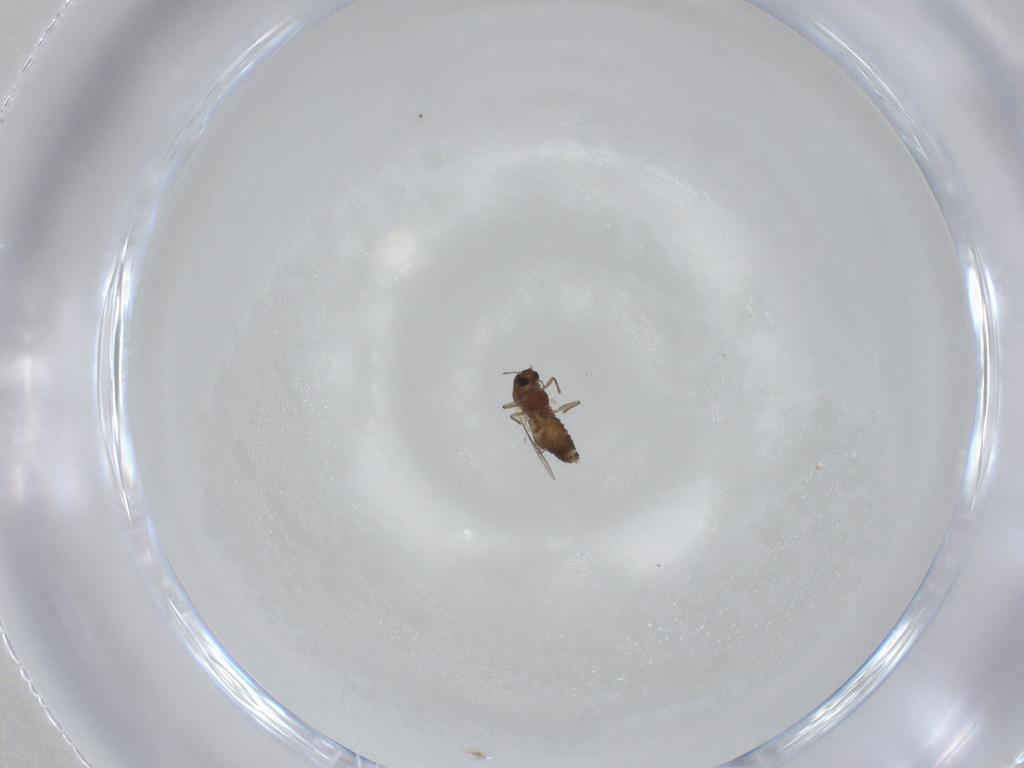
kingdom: Animalia
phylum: Arthropoda
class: Insecta
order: Diptera
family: Chironomidae
